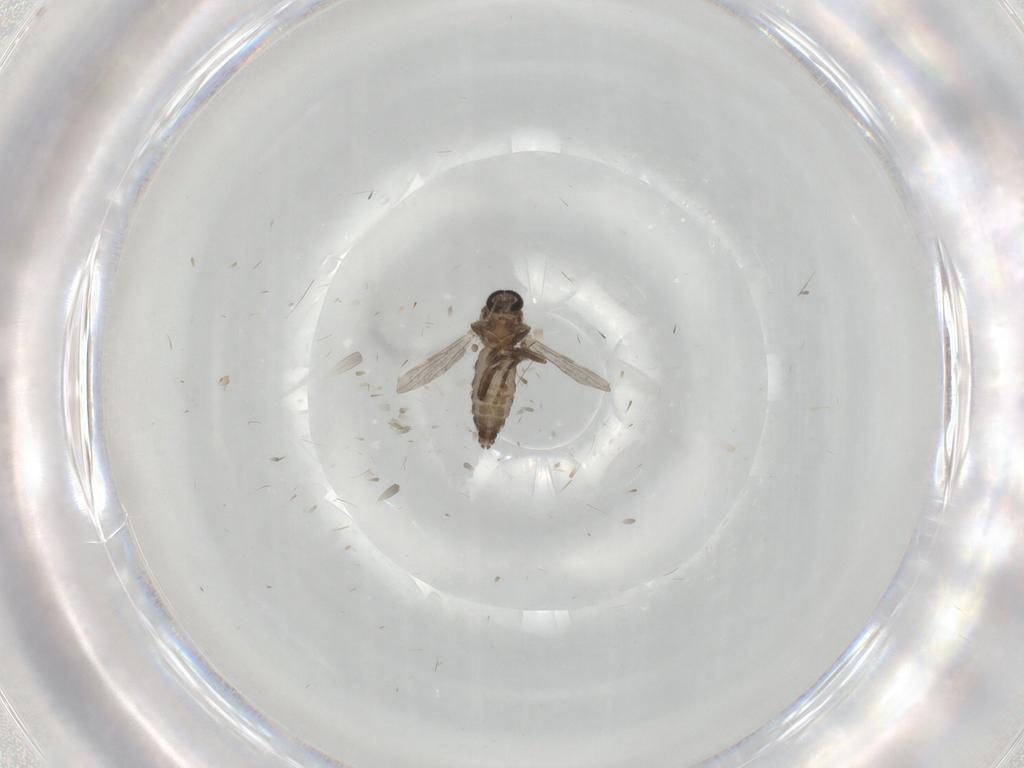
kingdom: Animalia
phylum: Arthropoda
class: Insecta
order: Diptera
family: Ceratopogonidae
